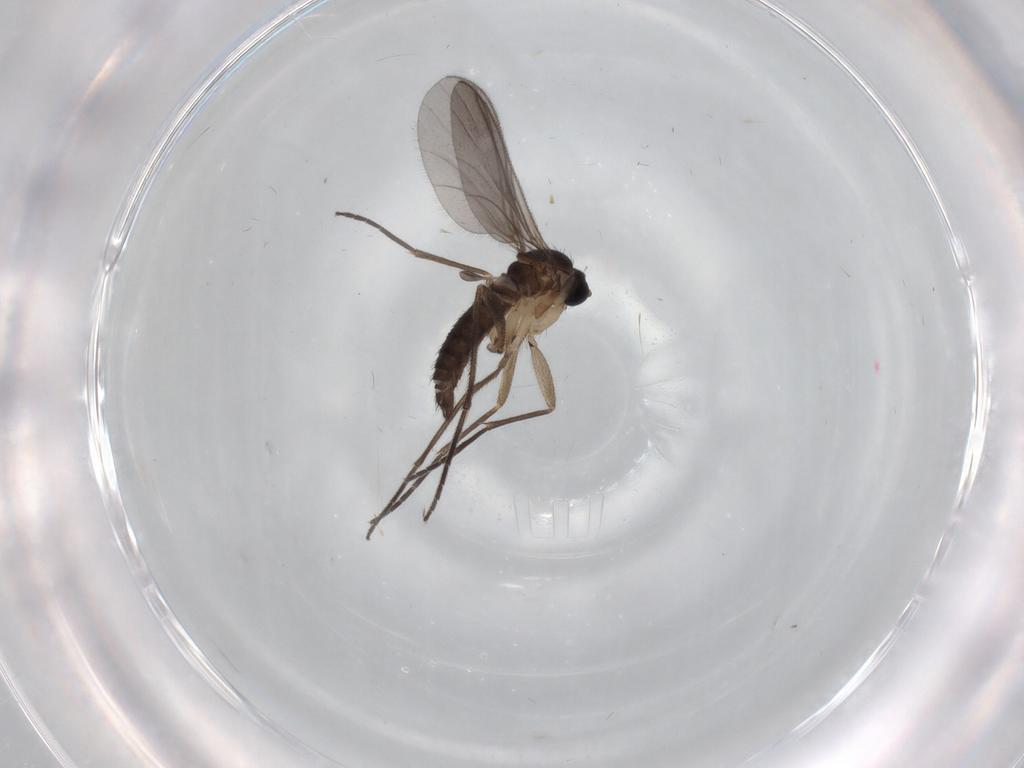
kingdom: Animalia
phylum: Arthropoda
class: Insecta
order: Diptera
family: Sciaridae
